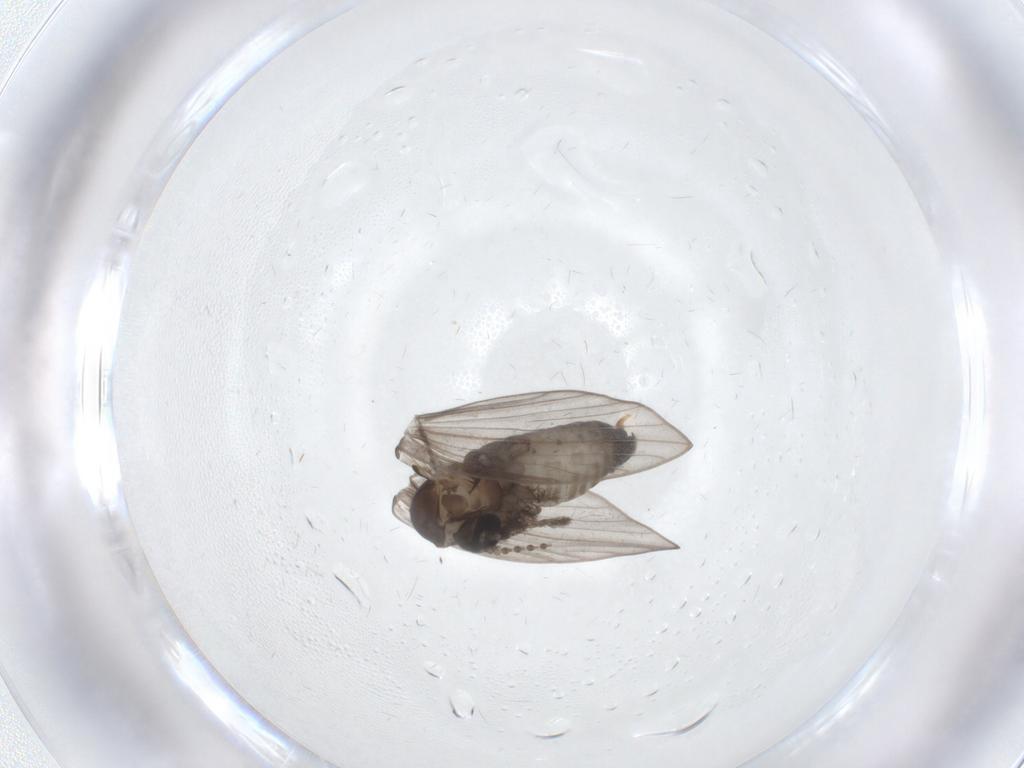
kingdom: Animalia
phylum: Arthropoda
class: Insecta
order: Diptera
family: Psychodidae
